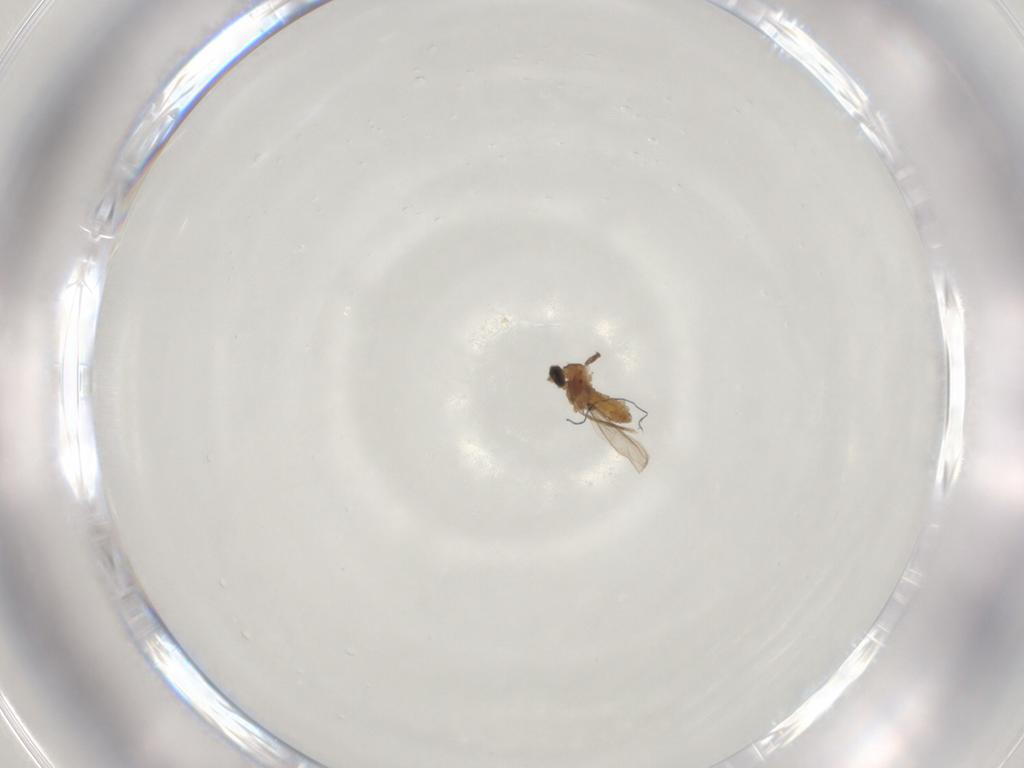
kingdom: Animalia
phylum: Arthropoda
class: Insecta
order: Diptera
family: Cecidomyiidae
